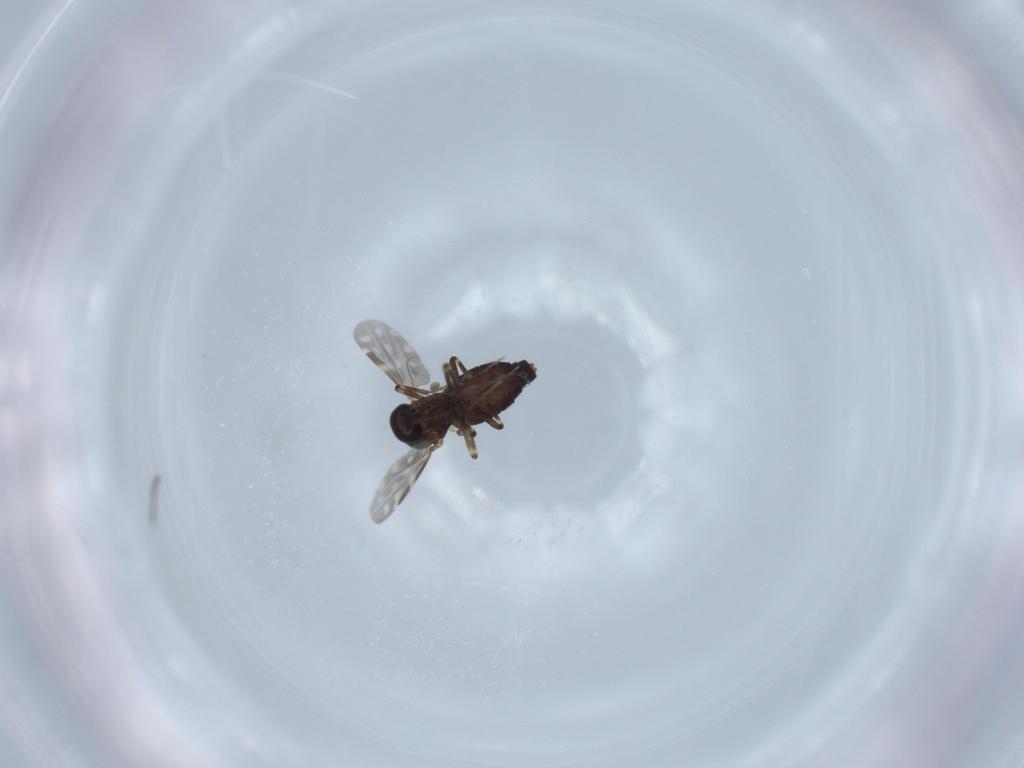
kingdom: Animalia
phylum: Arthropoda
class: Insecta
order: Diptera
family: Ceratopogonidae
